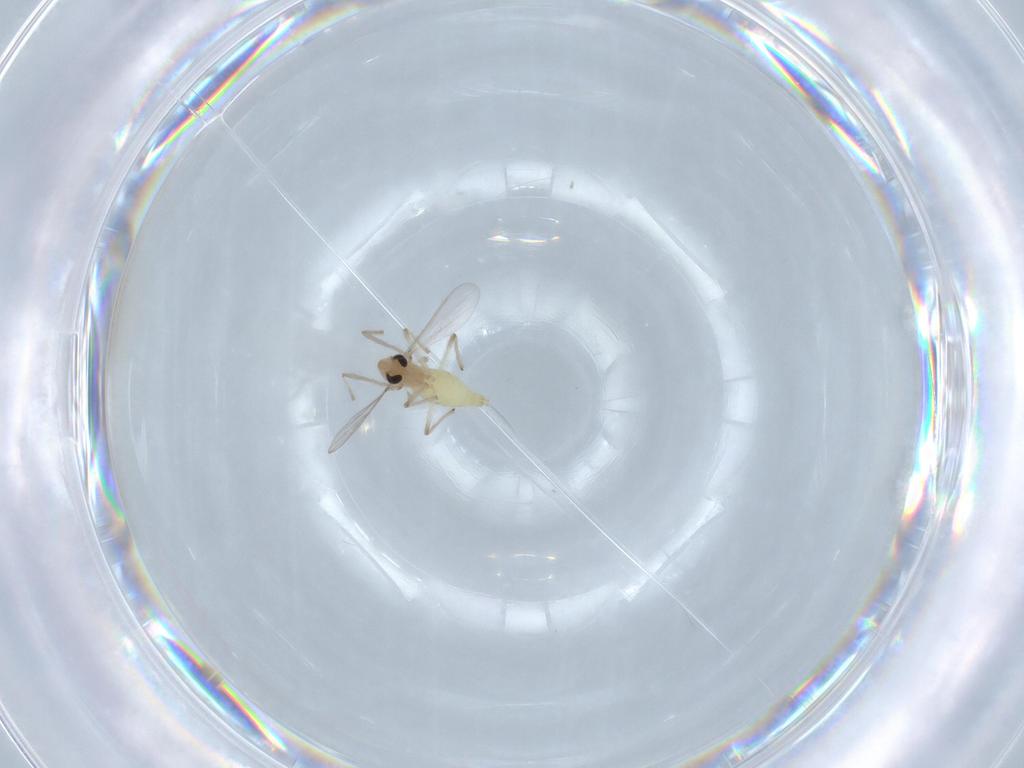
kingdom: Animalia
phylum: Arthropoda
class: Insecta
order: Diptera
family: Chironomidae
